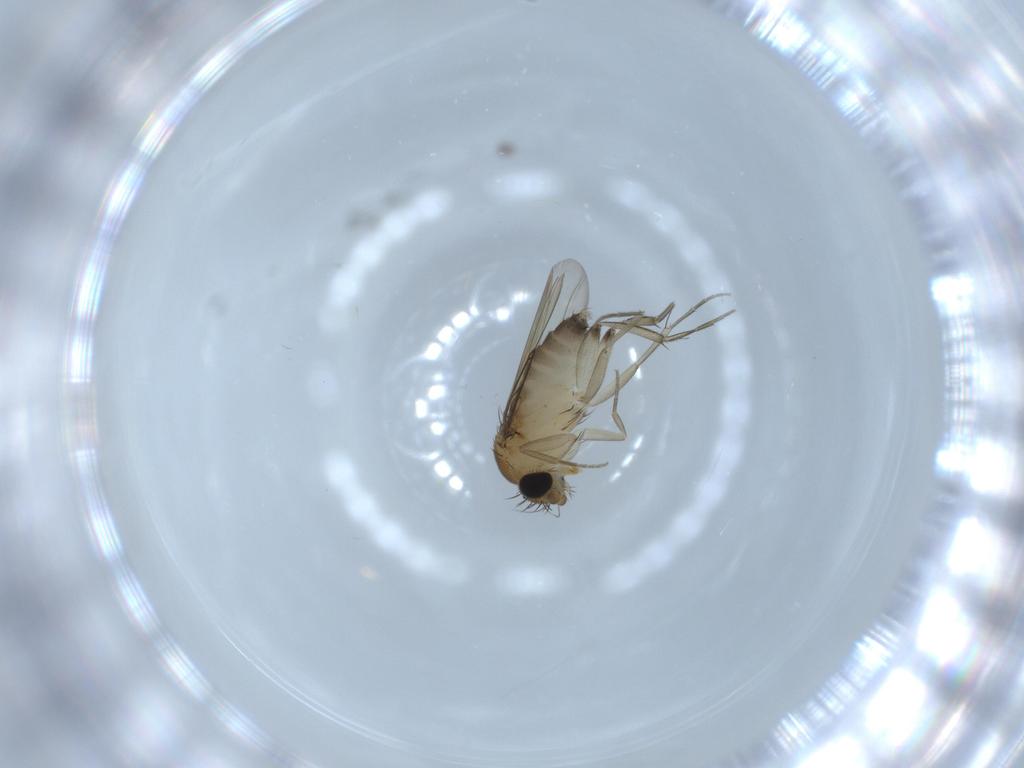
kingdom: Animalia
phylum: Arthropoda
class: Insecta
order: Diptera
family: Phoridae
